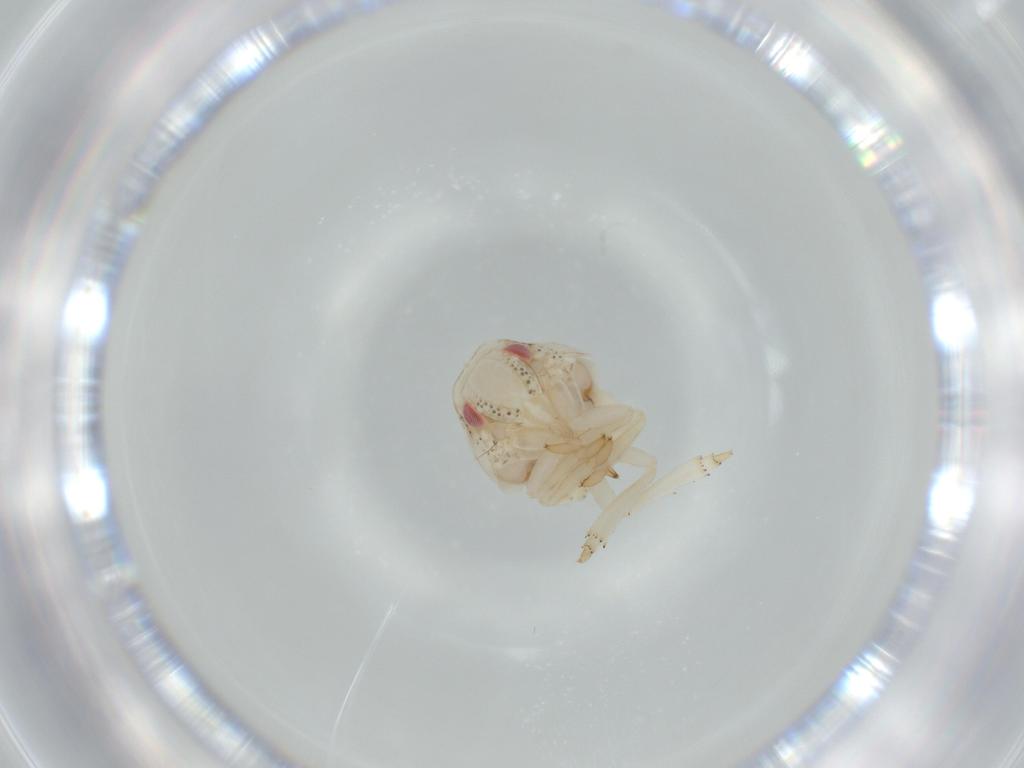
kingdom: Animalia
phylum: Arthropoda
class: Insecta
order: Hemiptera
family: Acanaloniidae
